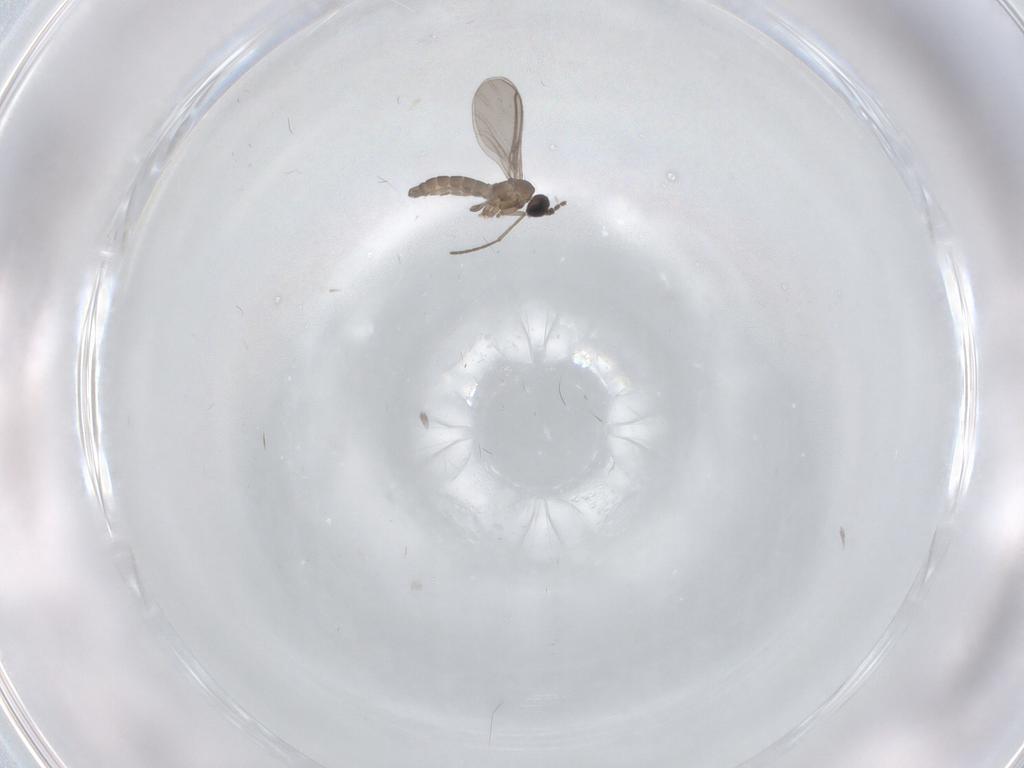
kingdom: Animalia
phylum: Arthropoda
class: Insecta
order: Diptera
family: Sciaridae
